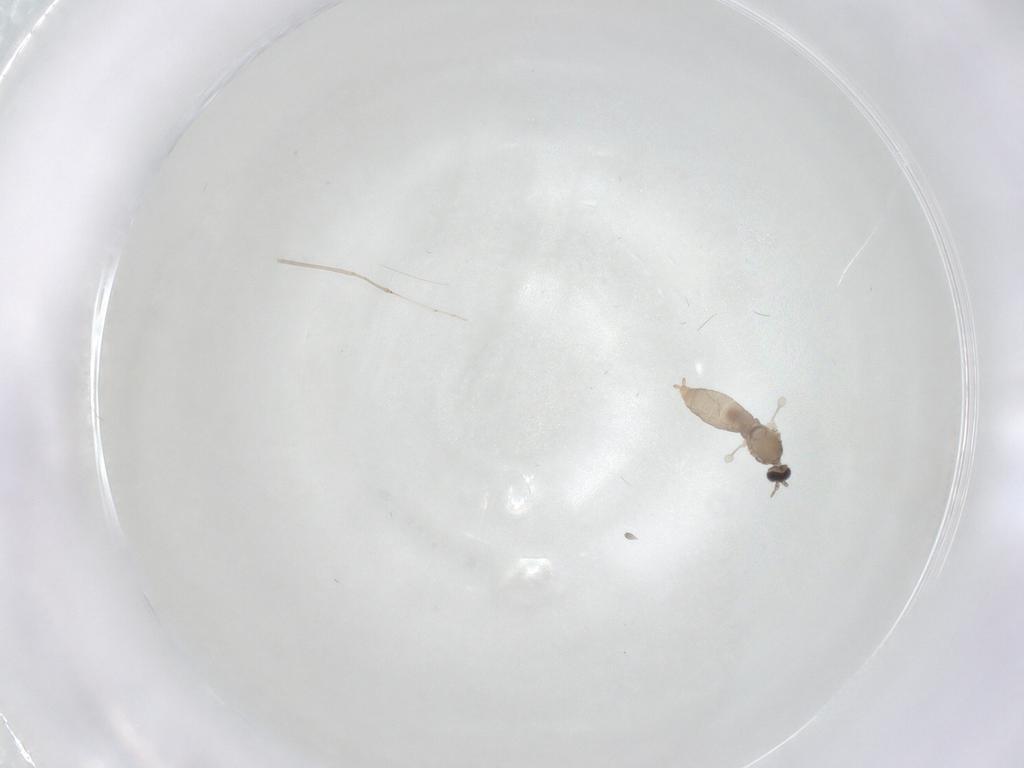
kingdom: Animalia
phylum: Arthropoda
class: Insecta
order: Diptera
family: Cecidomyiidae
